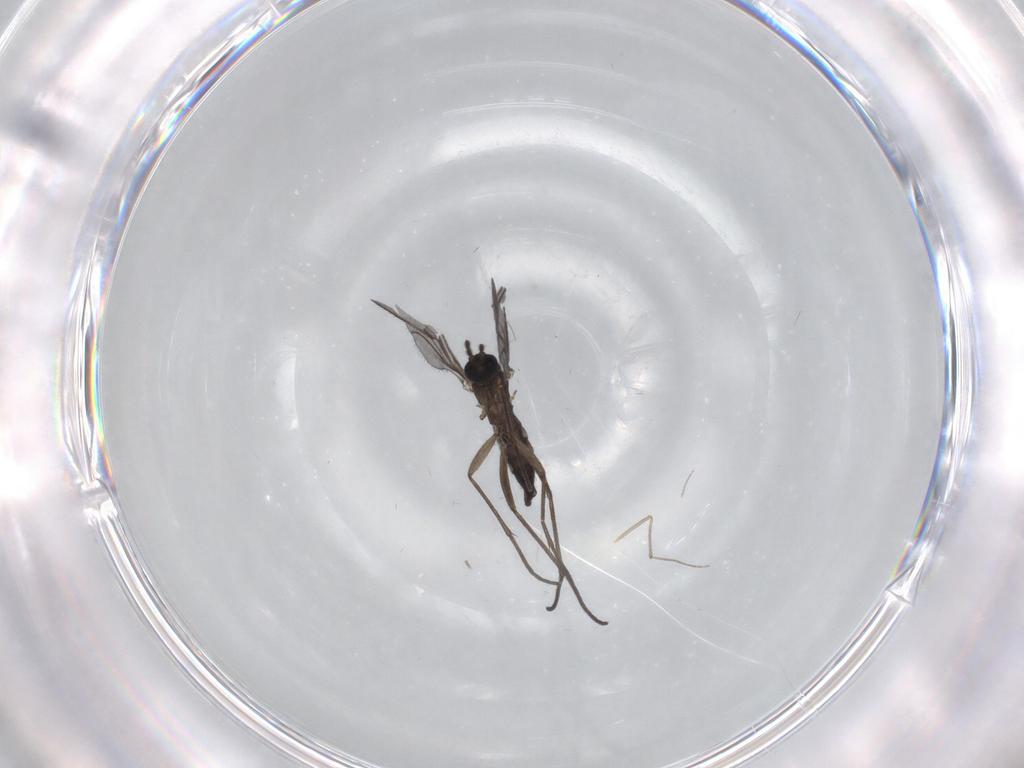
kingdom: Animalia
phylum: Arthropoda
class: Insecta
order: Diptera
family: Sciaridae
